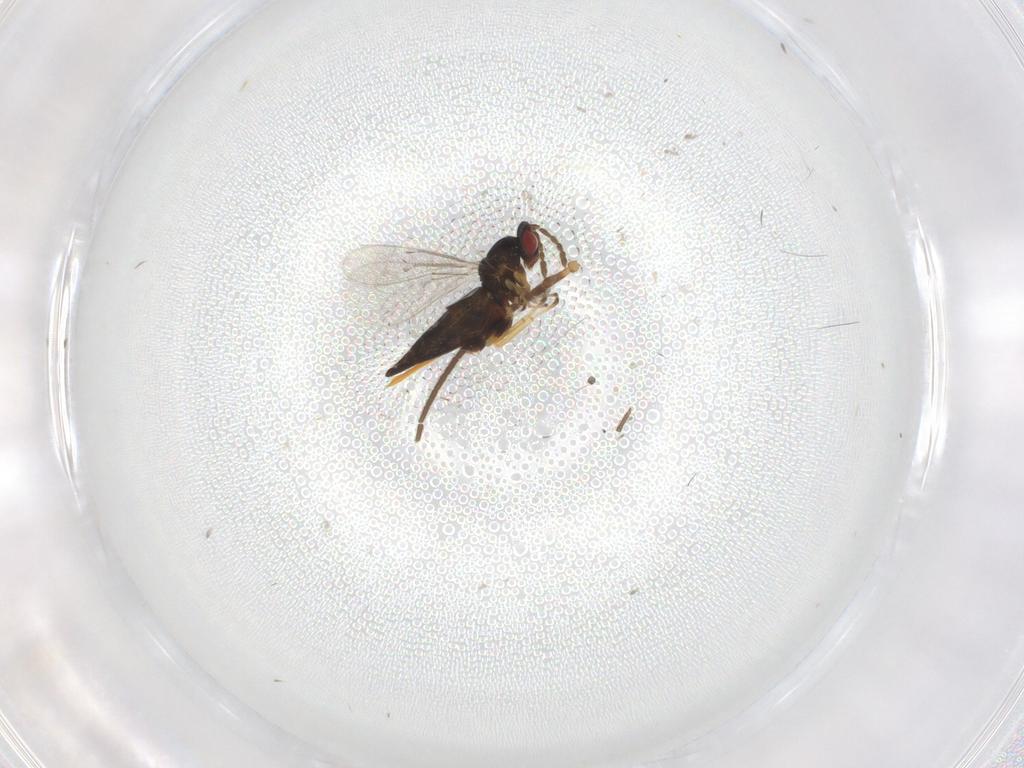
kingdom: Animalia
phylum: Arthropoda
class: Insecta
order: Hymenoptera
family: Eulophidae
